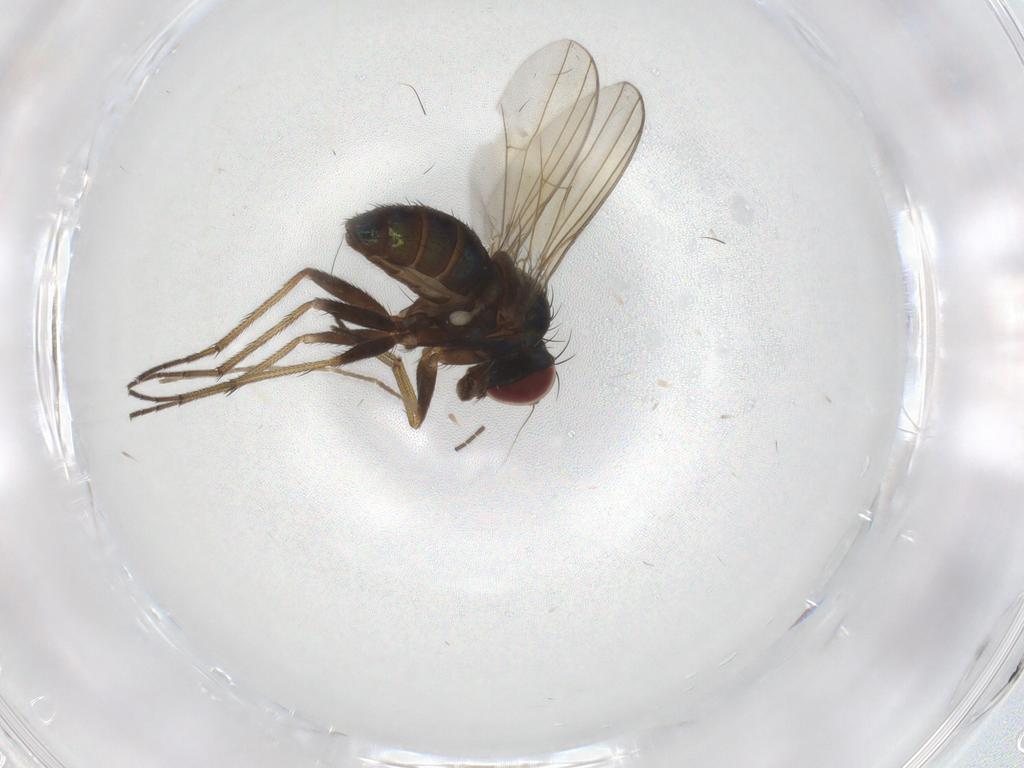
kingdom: Animalia
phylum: Arthropoda
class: Insecta
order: Diptera
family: Dolichopodidae
